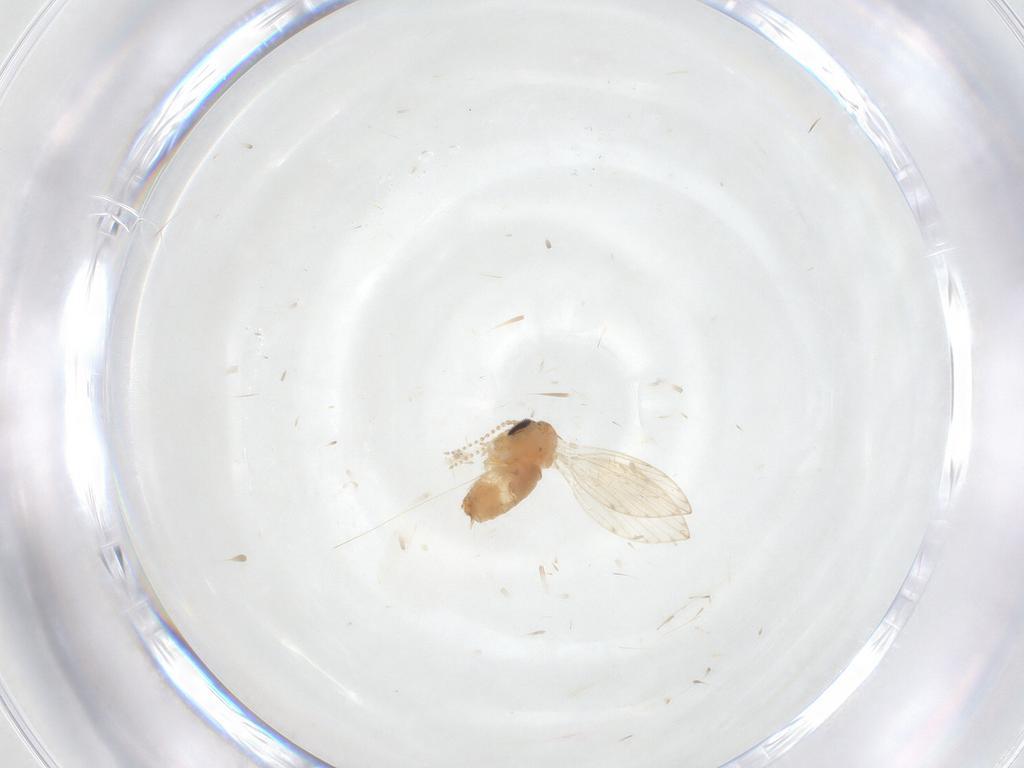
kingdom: Animalia
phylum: Arthropoda
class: Insecta
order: Diptera
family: Psychodidae
